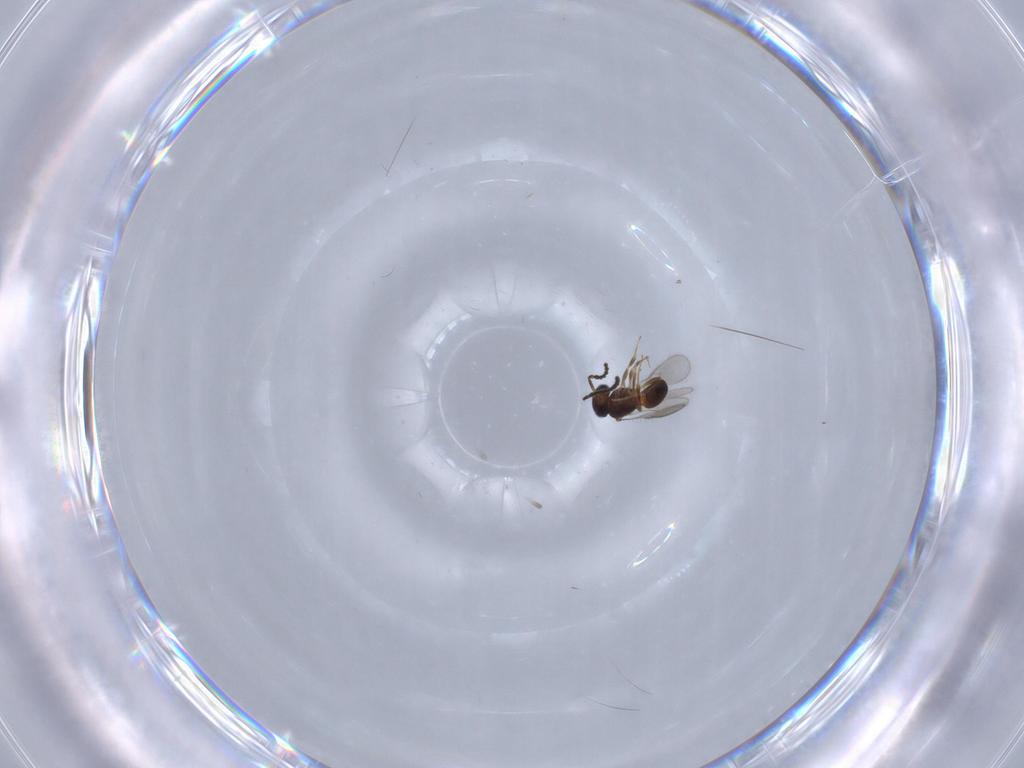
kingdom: Animalia
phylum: Arthropoda
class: Insecta
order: Hymenoptera
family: Scelionidae
